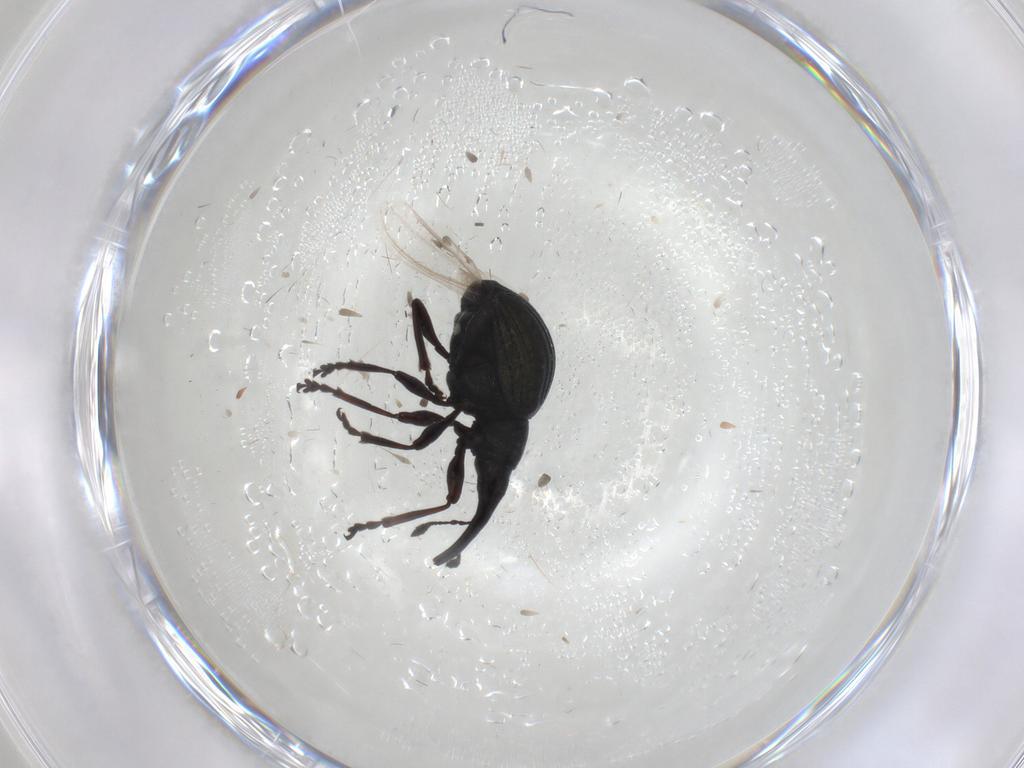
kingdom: Animalia
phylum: Arthropoda
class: Insecta
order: Coleoptera
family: Brentidae
